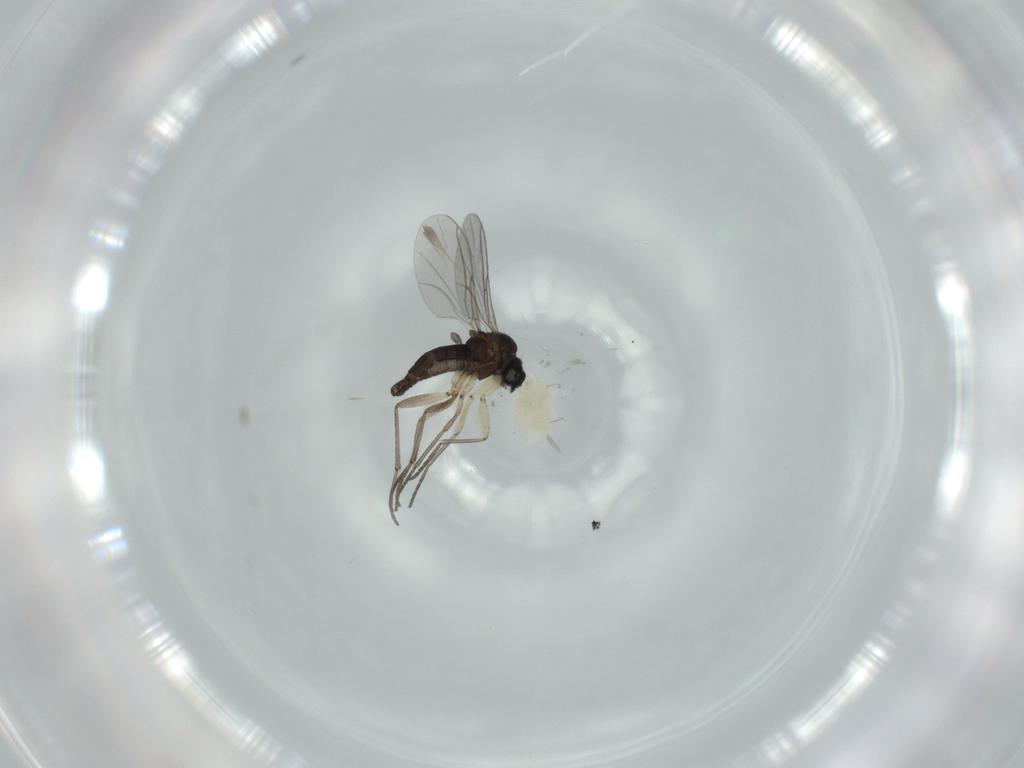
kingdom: Animalia
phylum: Arthropoda
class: Insecta
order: Diptera
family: Sciaridae
